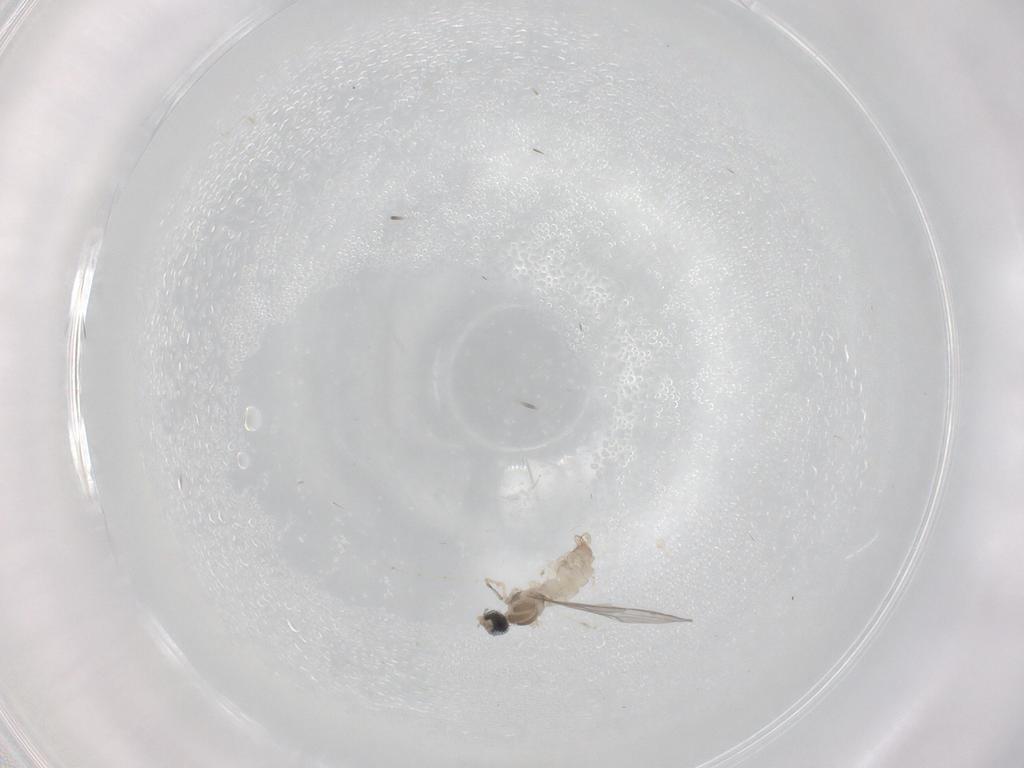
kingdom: Animalia
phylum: Arthropoda
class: Insecta
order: Diptera
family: Cecidomyiidae
